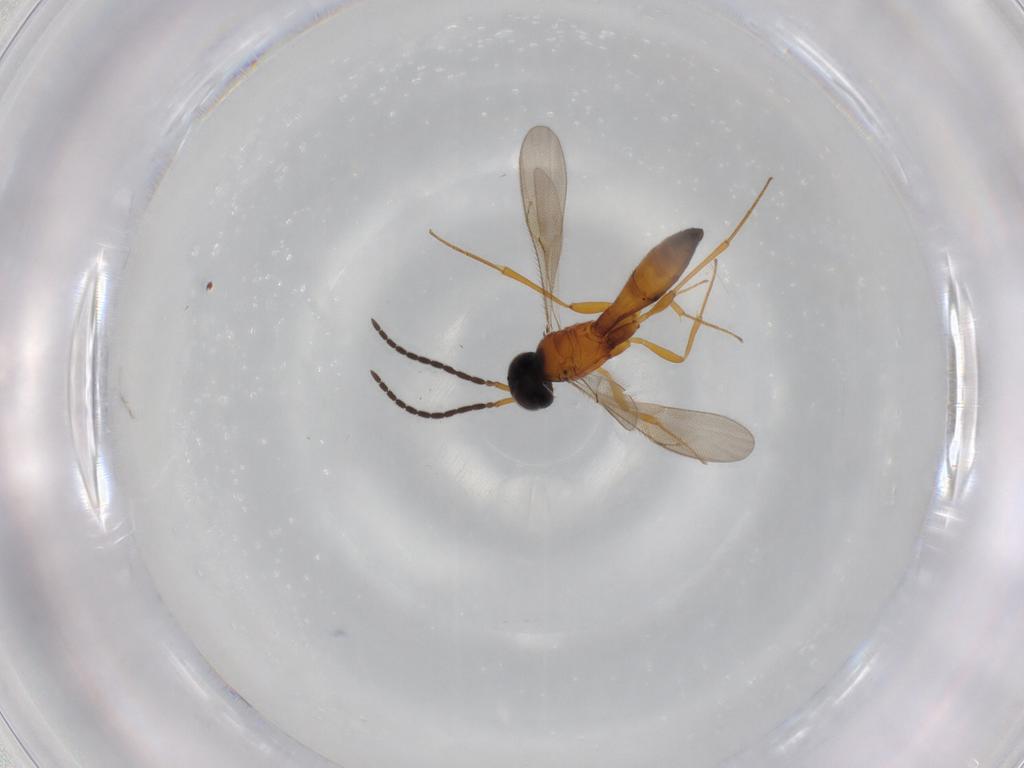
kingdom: Animalia
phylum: Arthropoda
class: Insecta
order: Hymenoptera
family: Scelionidae
